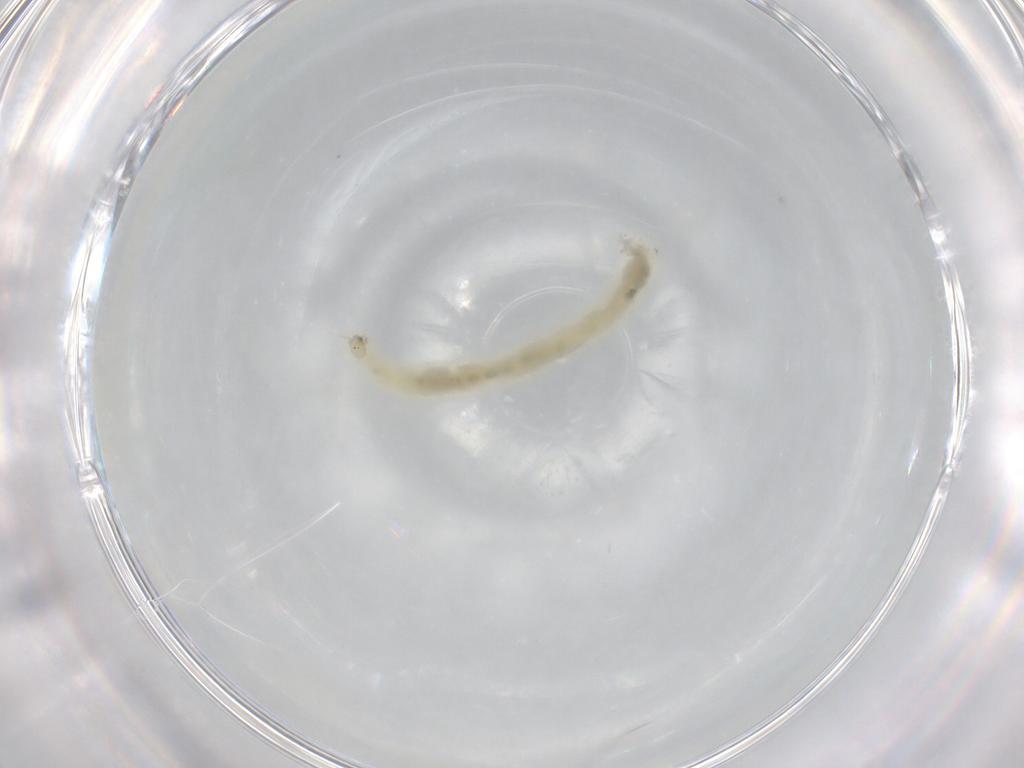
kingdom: Animalia
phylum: Arthropoda
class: Insecta
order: Diptera
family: Chironomidae
